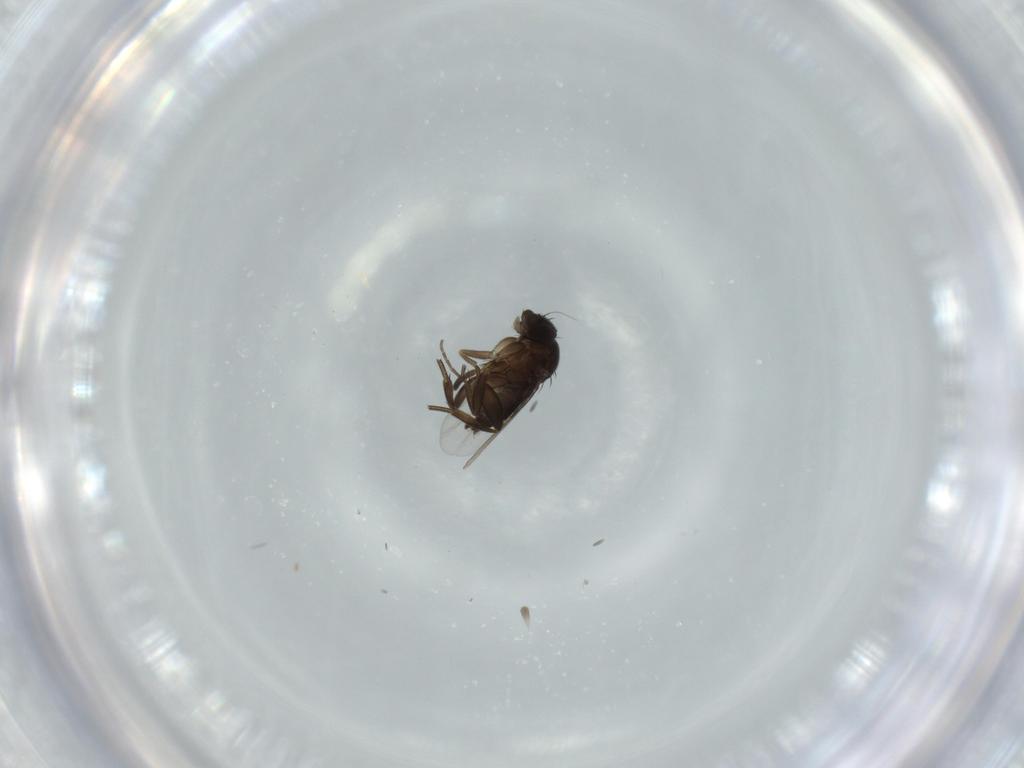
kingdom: Animalia
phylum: Arthropoda
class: Insecta
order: Diptera
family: Phoridae
